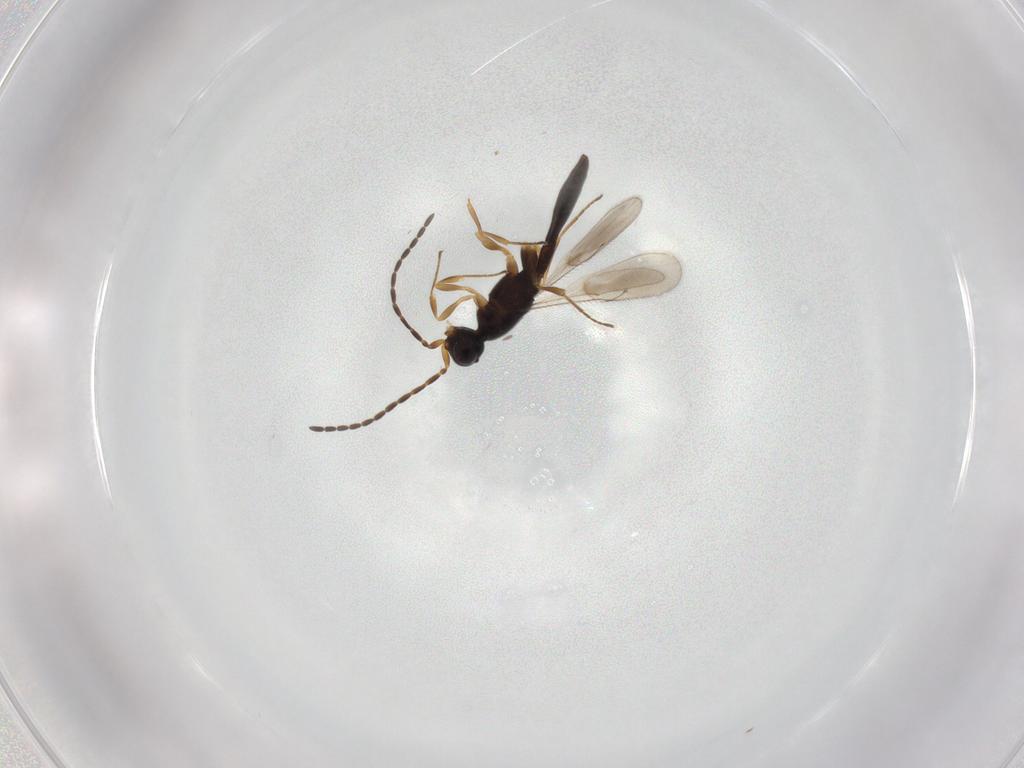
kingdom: Animalia
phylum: Arthropoda
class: Insecta
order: Hymenoptera
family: Scelionidae
